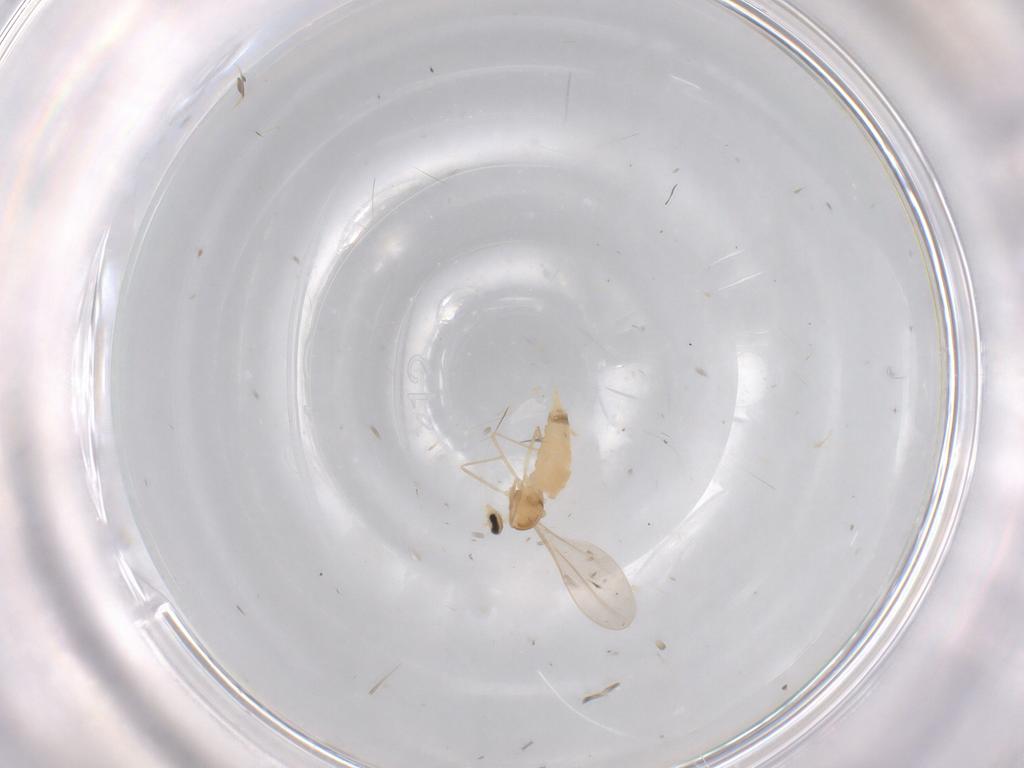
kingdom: Animalia
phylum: Arthropoda
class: Insecta
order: Diptera
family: Cecidomyiidae
